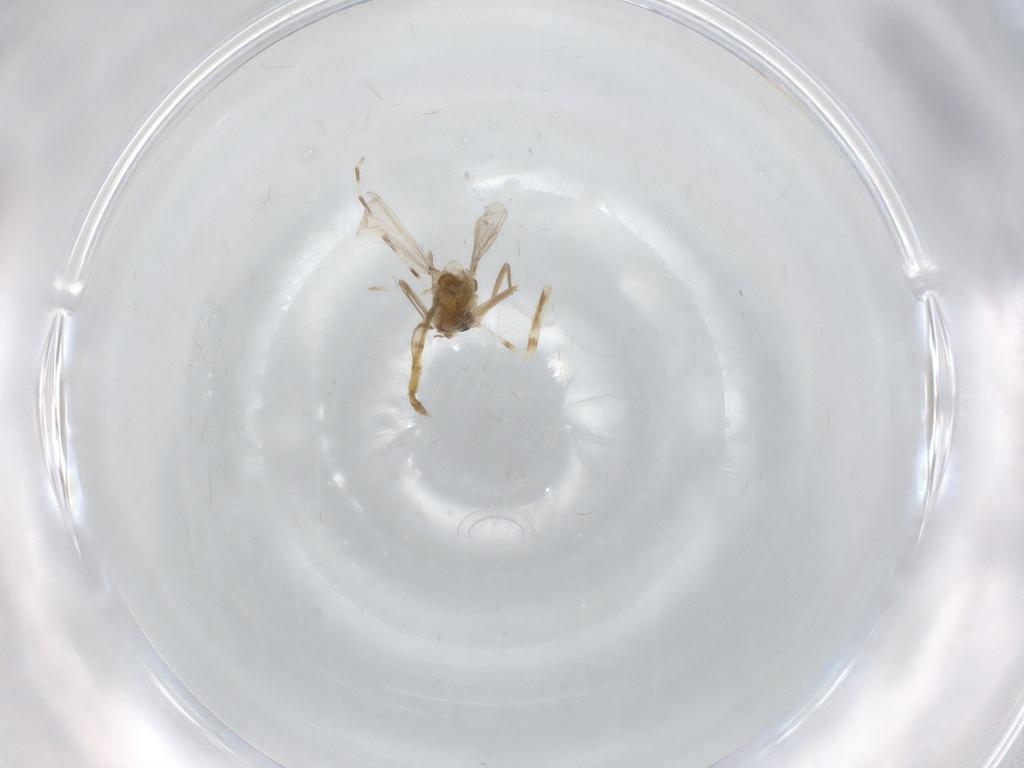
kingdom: Animalia
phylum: Arthropoda
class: Insecta
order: Diptera
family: Chironomidae
